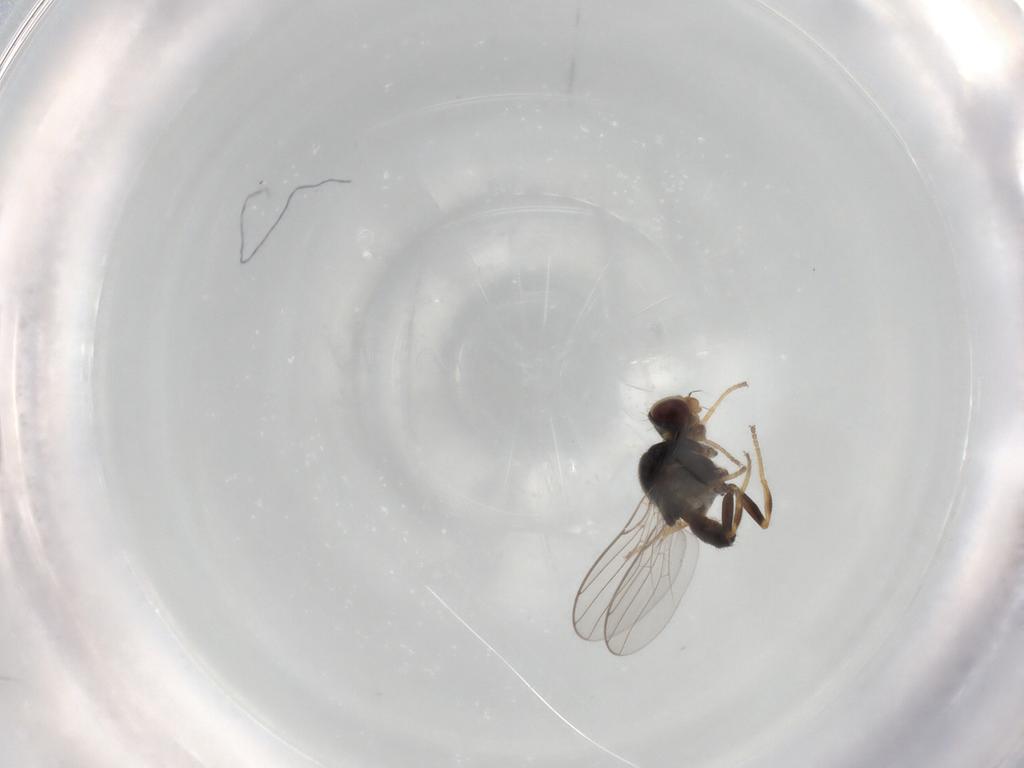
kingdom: Animalia
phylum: Arthropoda
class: Insecta
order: Diptera
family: Chloropidae
